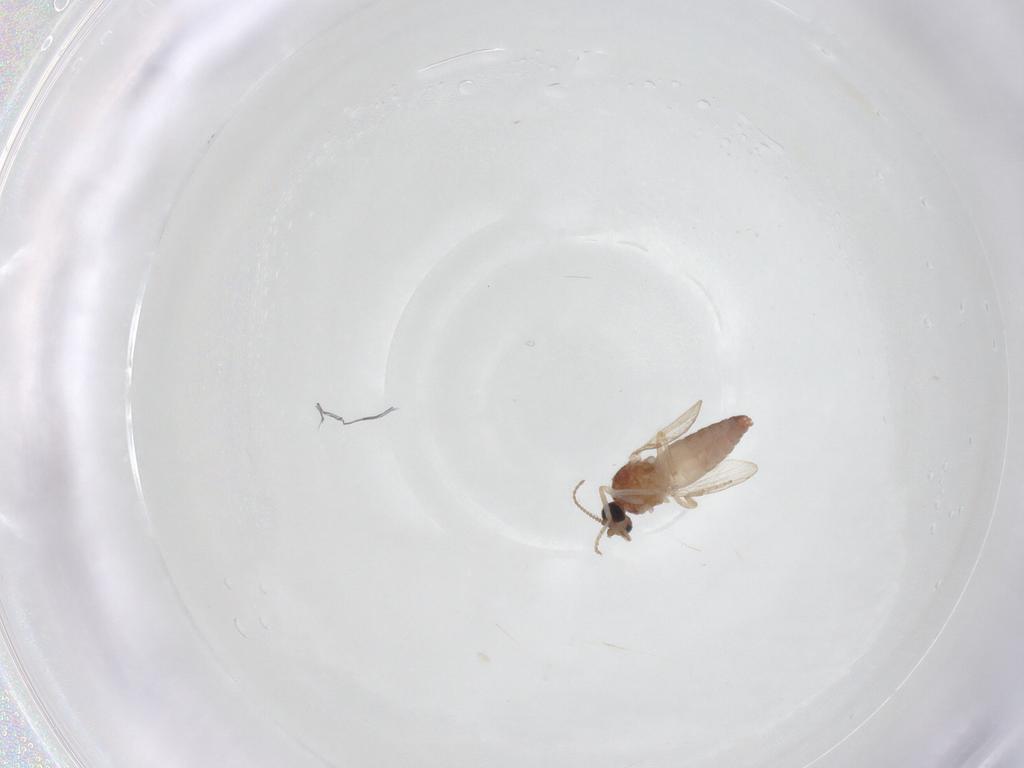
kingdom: Animalia
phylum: Arthropoda
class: Insecta
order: Diptera
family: Ceratopogonidae
